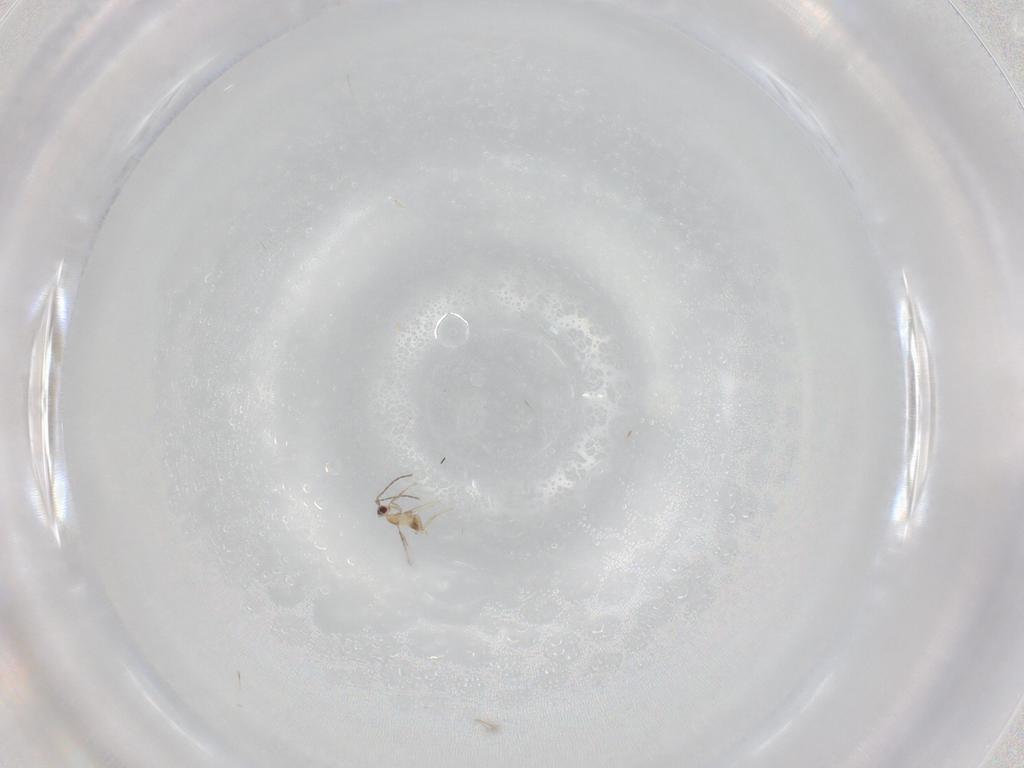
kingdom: Animalia
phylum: Arthropoda
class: Insecta
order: Hymenoptera
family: Mymaridae
